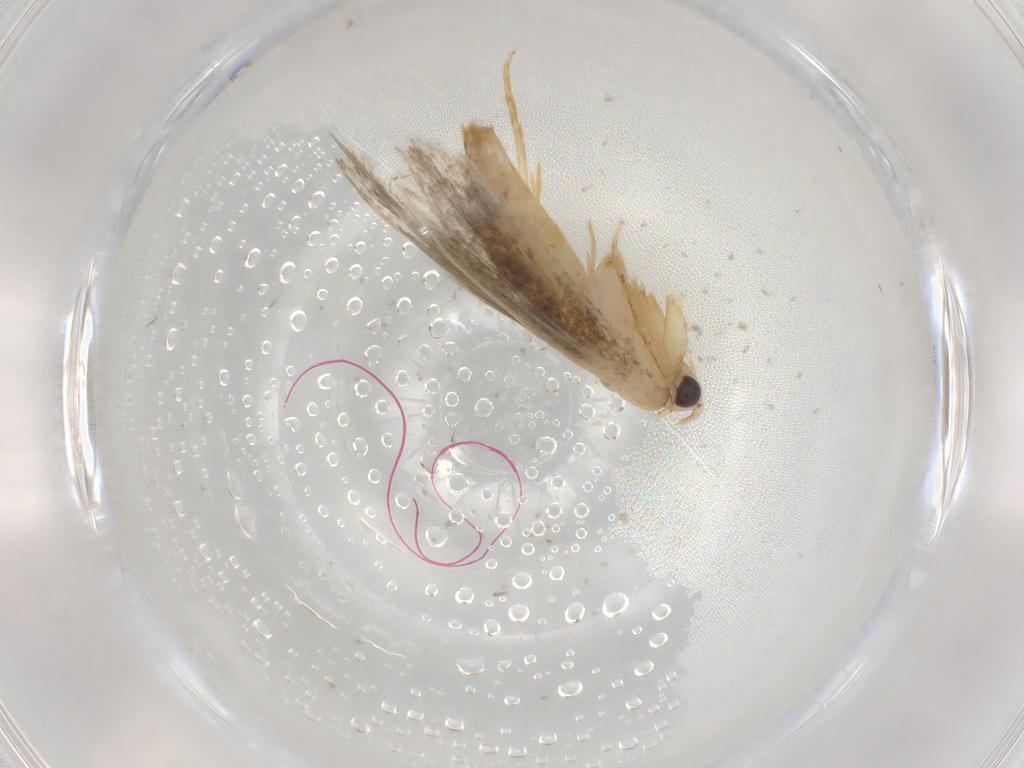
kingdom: Animalia
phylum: Arthropoda
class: Insecta
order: Lepidoptera
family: Tineidae
